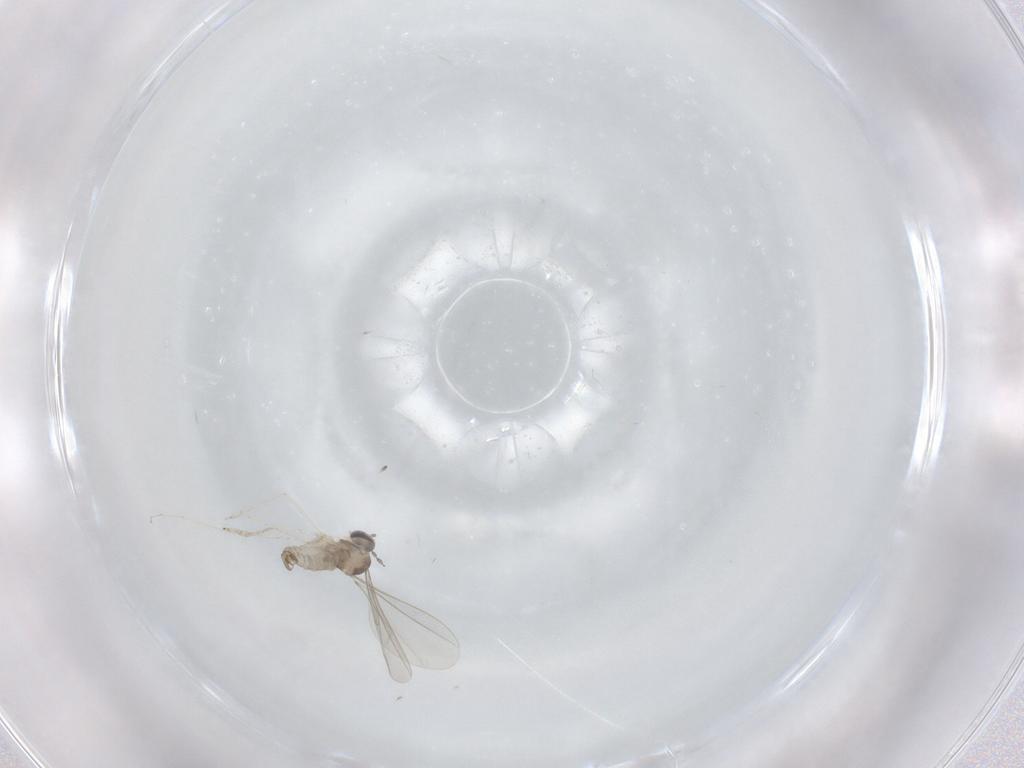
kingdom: Animalia
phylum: Arthropoda
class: Insecta
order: Diptera
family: Cecidomyiidae
